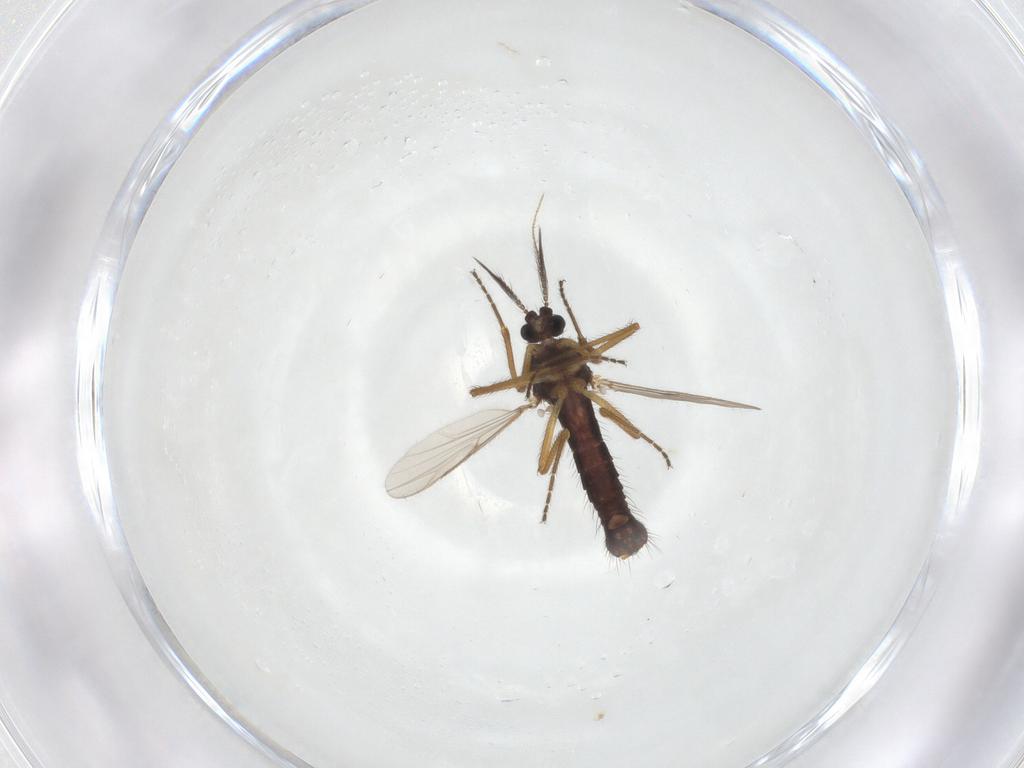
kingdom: Animalia
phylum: Arthropoda
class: Insecta
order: Diptera
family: Ceratopogonidae
